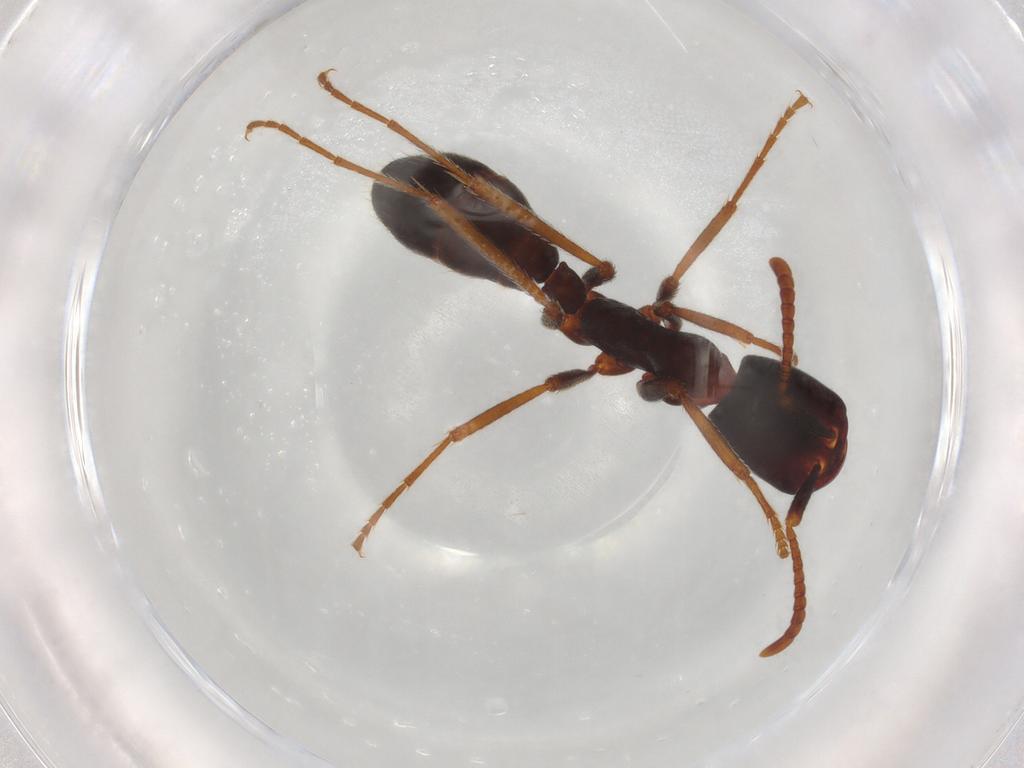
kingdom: Animalia
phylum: Arthropoda
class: Insecta
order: Hymenoptera
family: Formicidae
